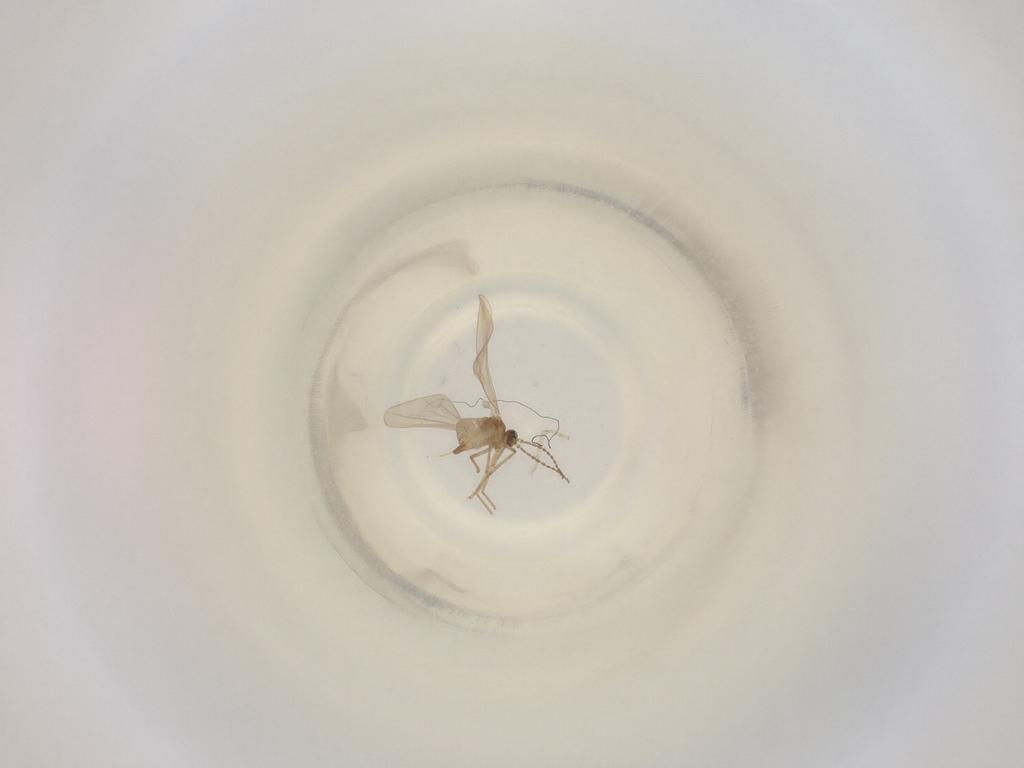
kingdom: Animalia
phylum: Arthropoda
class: Insecta
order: Diptera
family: Cecidomyiidae
